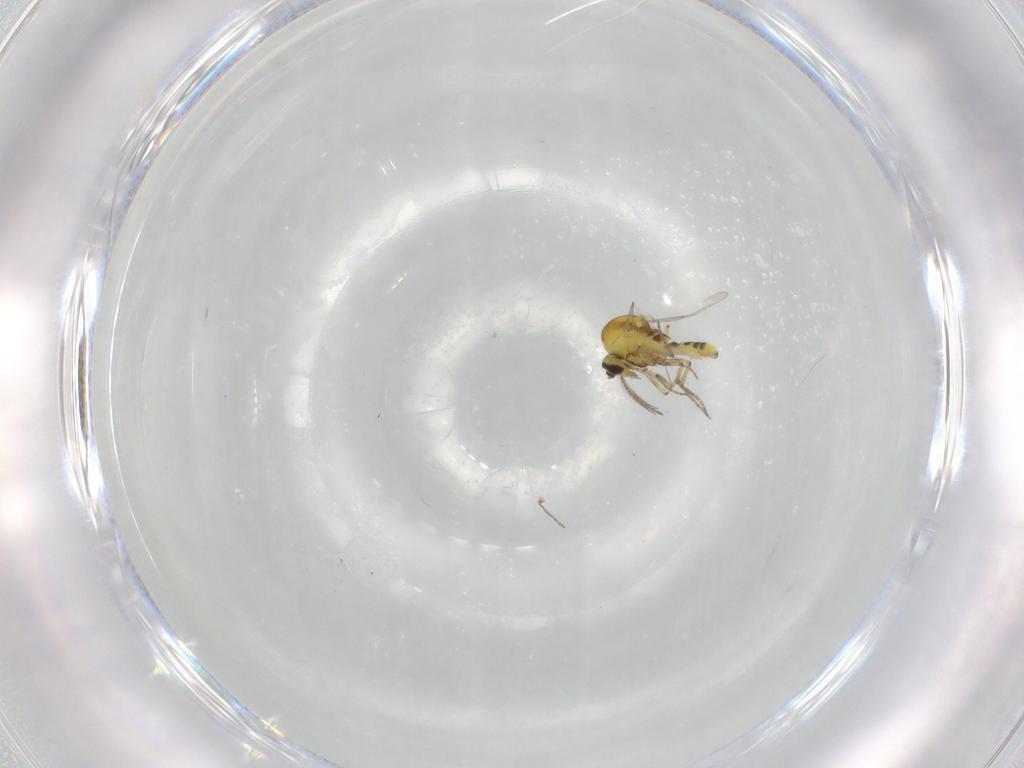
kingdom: Animalia
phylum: Arthropoda
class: Insecta
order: Diptera
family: Ceratopogonidae
